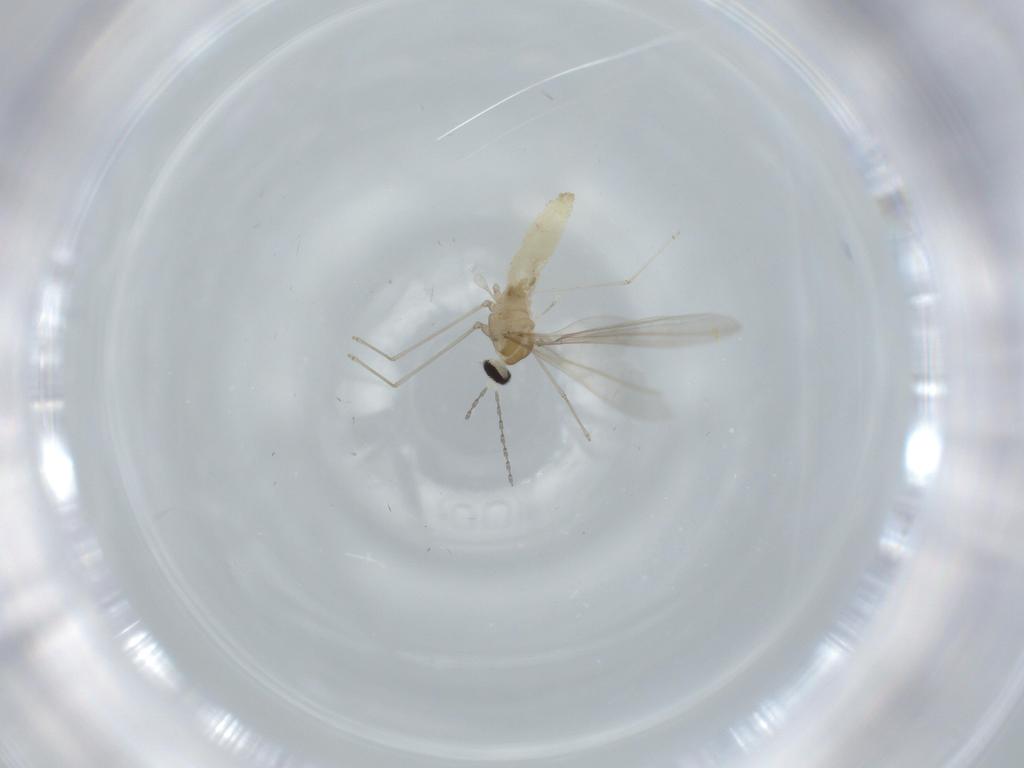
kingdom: Animalia
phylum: Arthropoda
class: Insecta
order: Diptera
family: Cecidomyiidae
